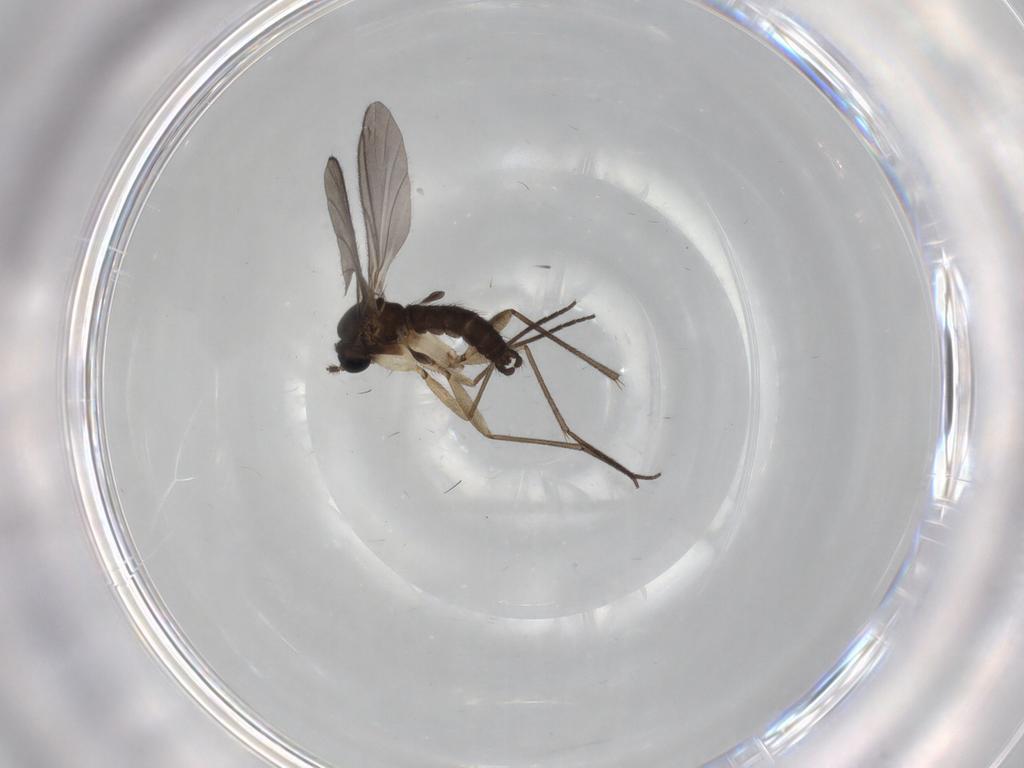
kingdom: Animalia
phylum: Arthropoda
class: Insecta
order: Diptera
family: Sciaridae
